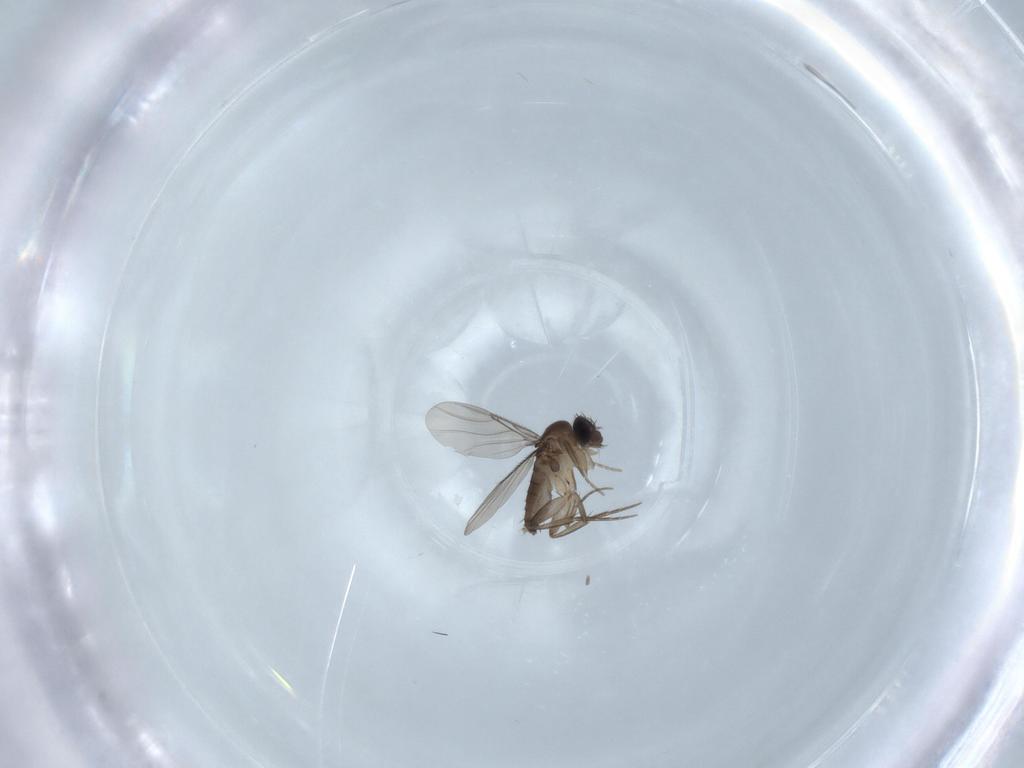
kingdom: Animalia
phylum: Arthropoda
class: Insecta
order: Diptera
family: Phoridae
